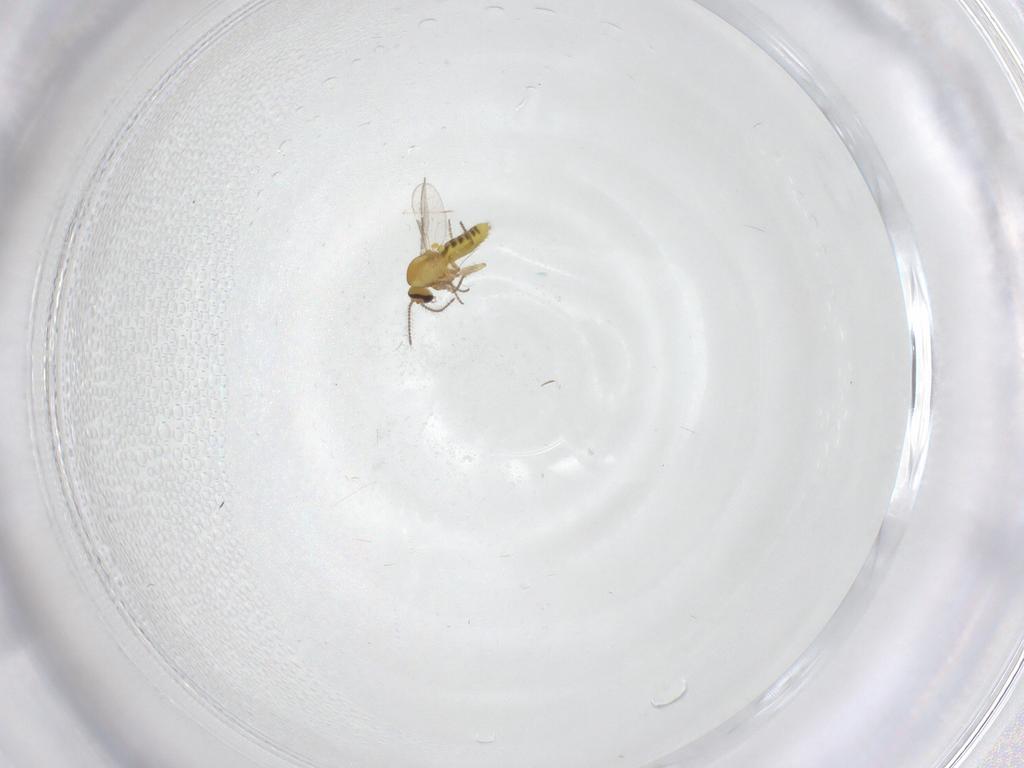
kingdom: Animalia
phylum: Arthropoda
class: Insecta
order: Diptera
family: Ceratopogonidae
